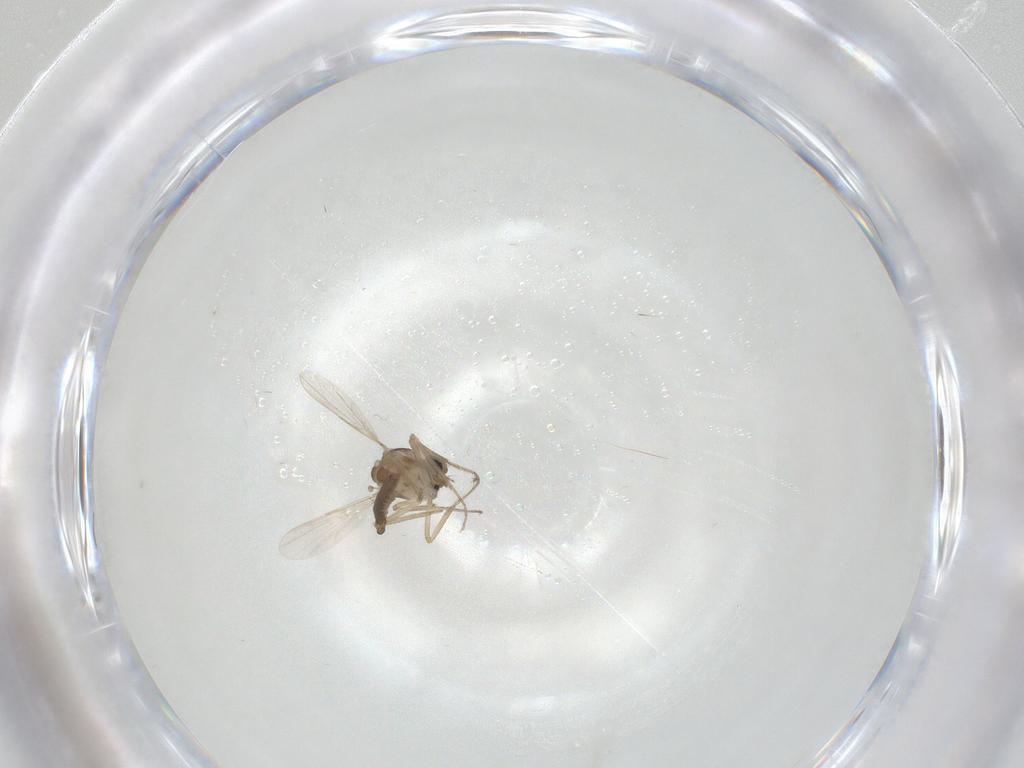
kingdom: Animalia
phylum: Arthropoda
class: Insecta
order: Diptera
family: Ceratopogonidae
